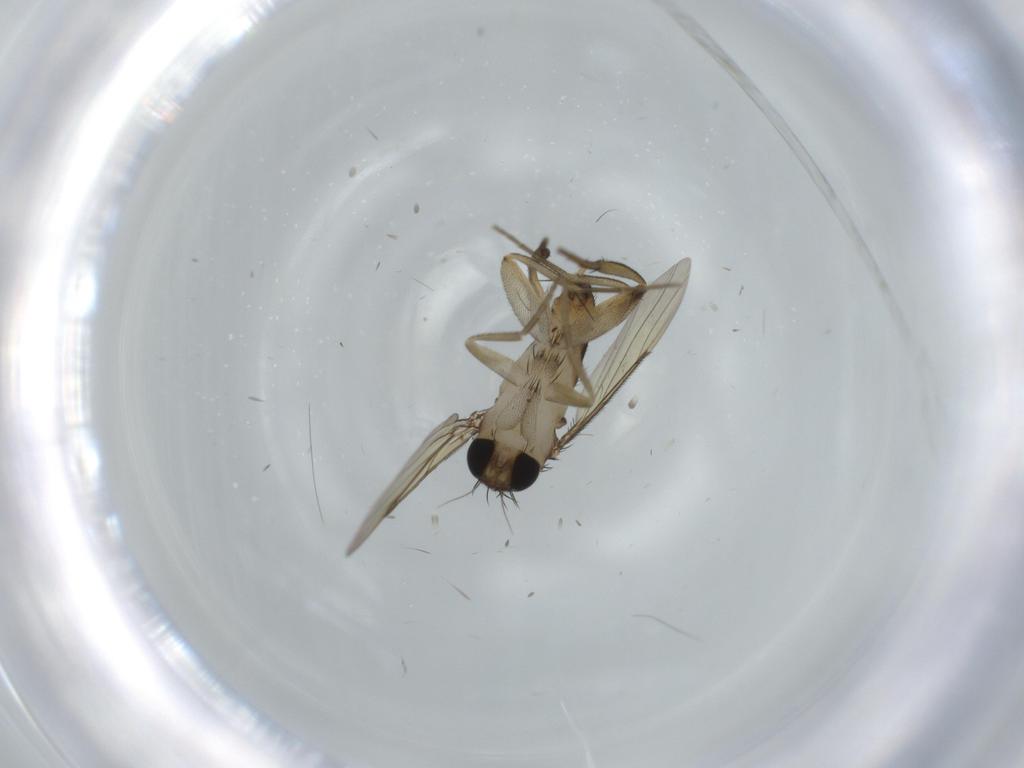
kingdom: Animalia
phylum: Arthropoda
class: Insecta
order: Diptera
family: Cecidomyiidae
